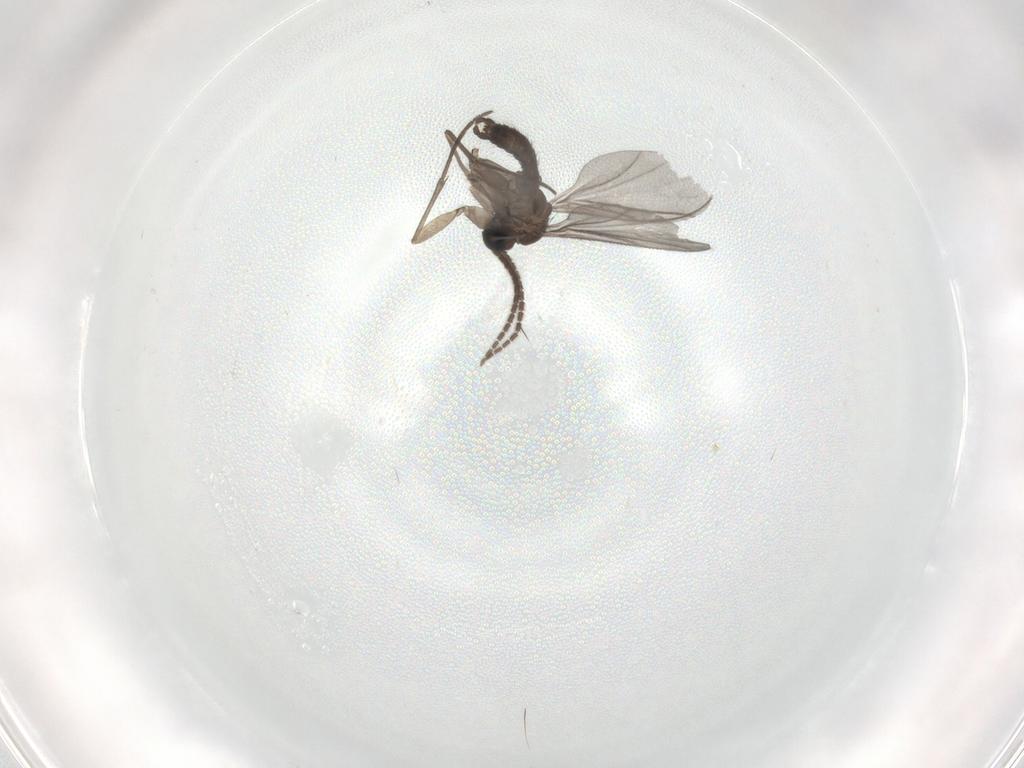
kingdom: Animalia
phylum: Arthropoda
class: Insecta
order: Diptera
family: Sciaridae
